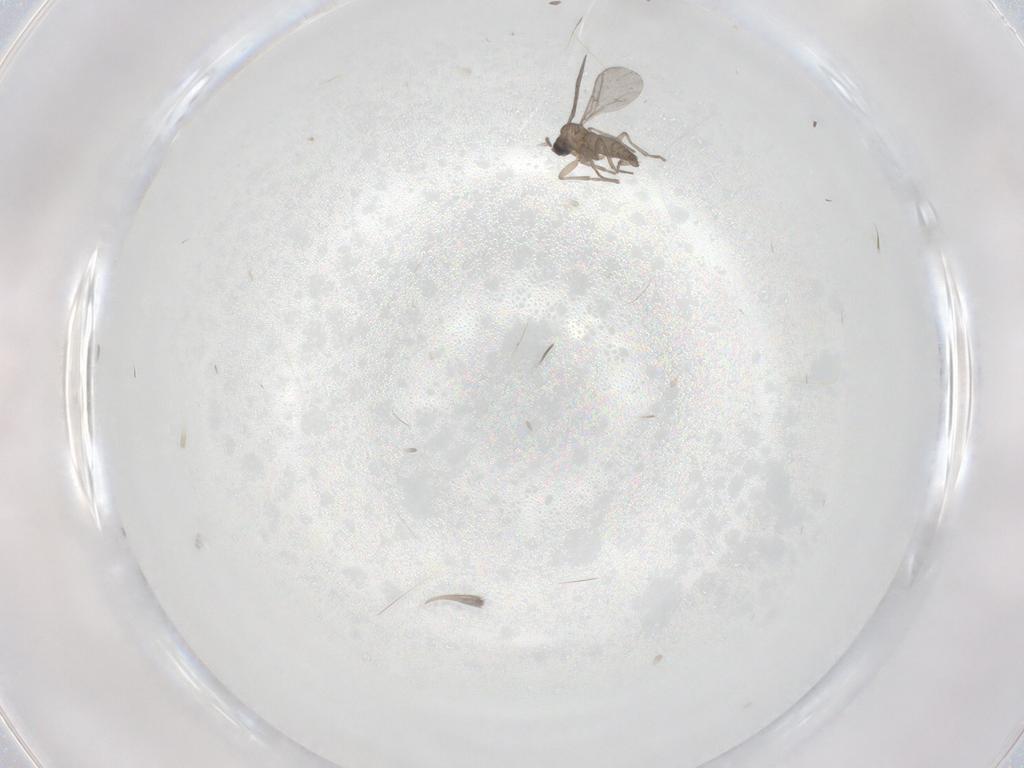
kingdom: Animalia
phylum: Arthropoda
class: Insecta
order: Diptera
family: Sciaridae
